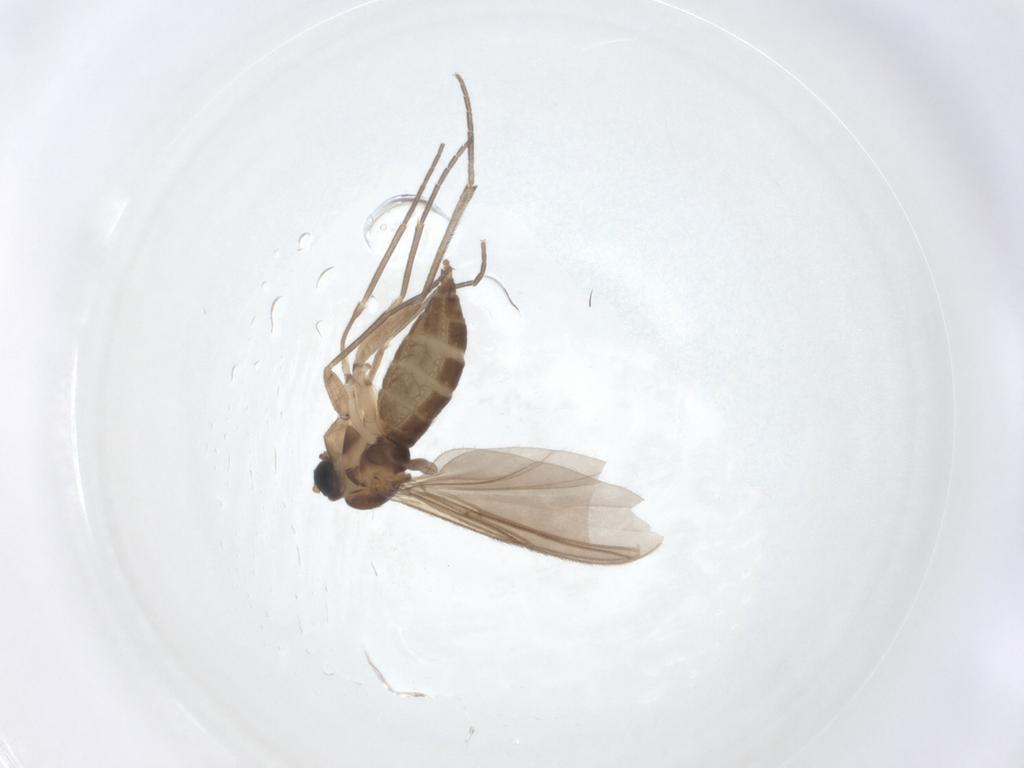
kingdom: Animalia
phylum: Arthropoda
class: Insecta
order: Diptera
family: Sciaridae
